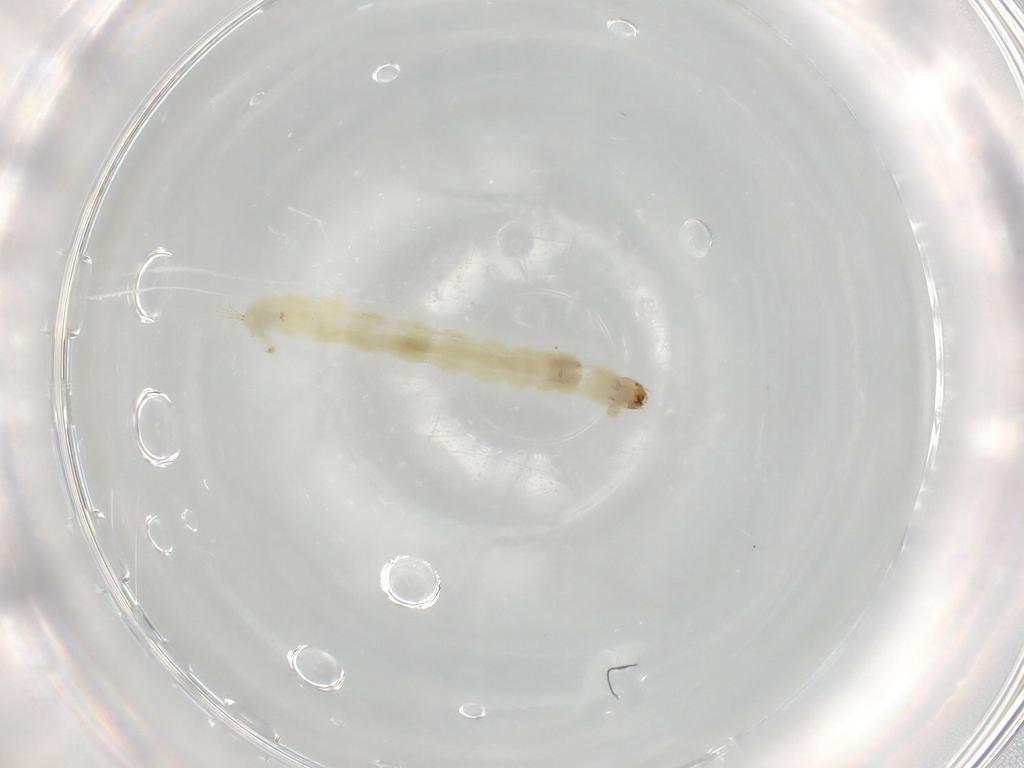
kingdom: Animalia
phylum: Arthropoda
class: Insecta
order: Diptera
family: Chironomidae
